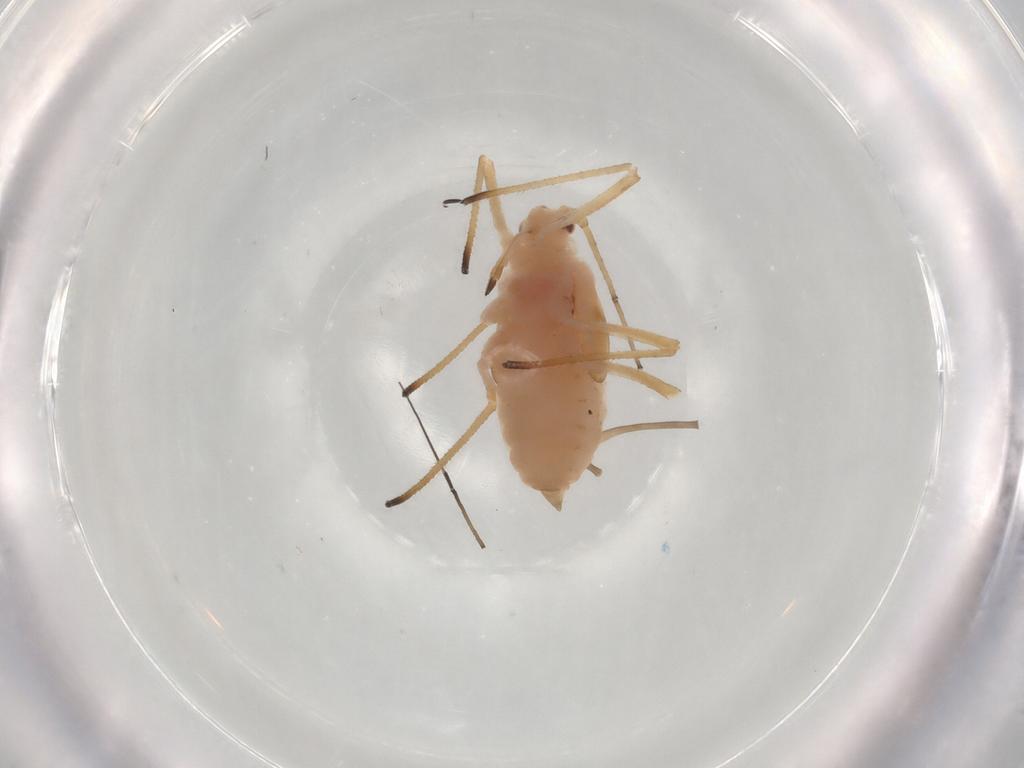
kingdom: Animalia
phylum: Arthropoda
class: Insecta
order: Hemiptera
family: Aphididae
